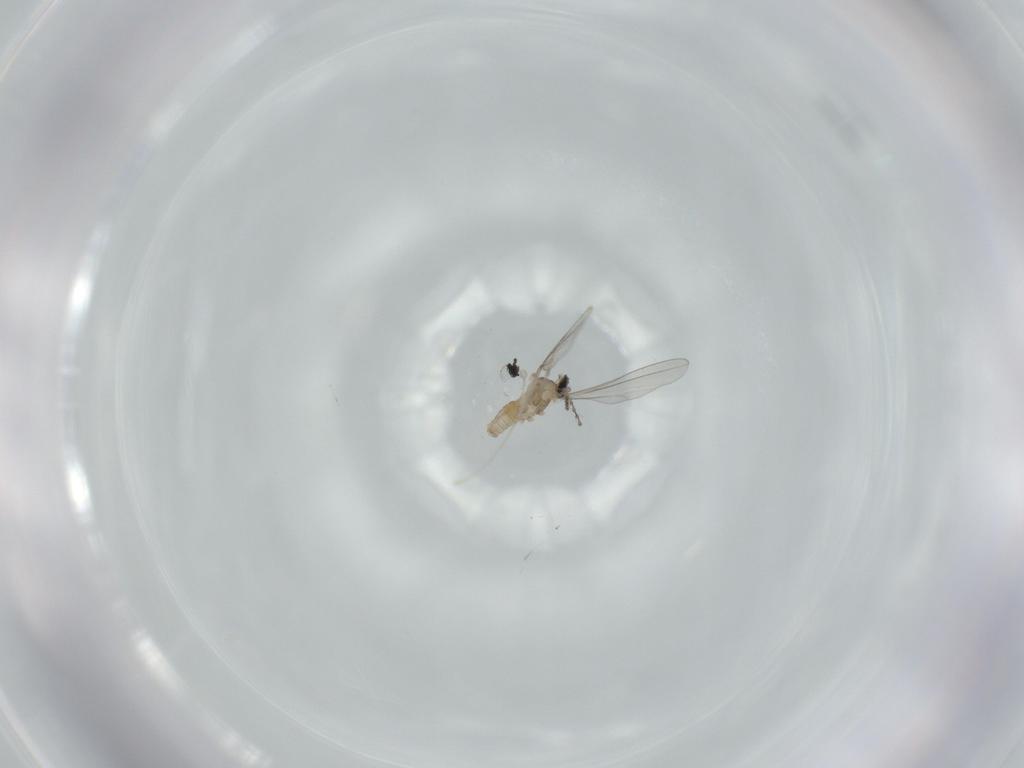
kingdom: Animalia
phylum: Arthropoda
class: Insecta
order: Diptera
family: Cecidomyiidae
